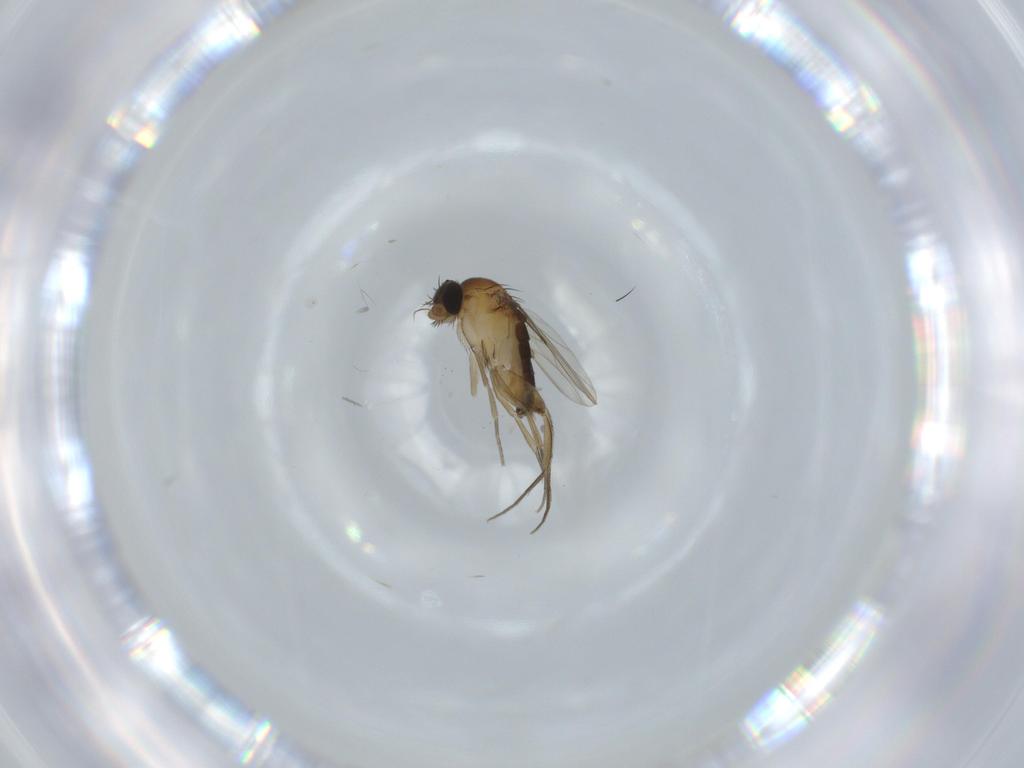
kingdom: Animalia
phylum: Arthropoda
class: Insecta
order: Diptera
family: Phoridae
